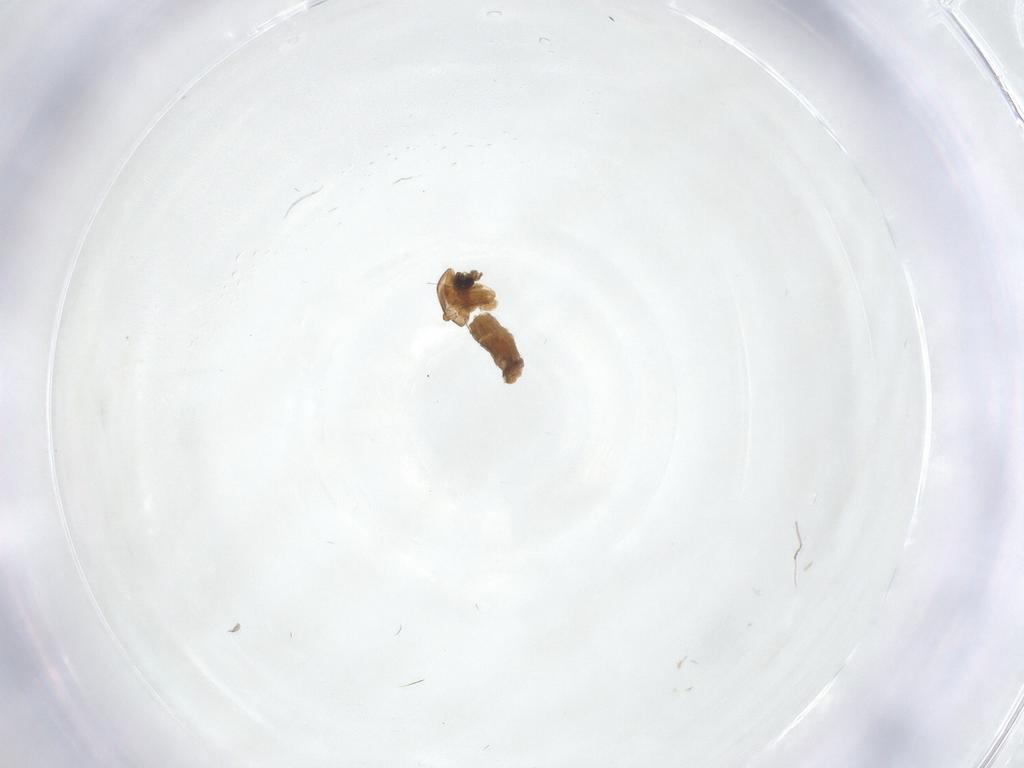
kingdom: Animalia
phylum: Arthropoda
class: Insecta
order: Diptera
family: Chironomidae
